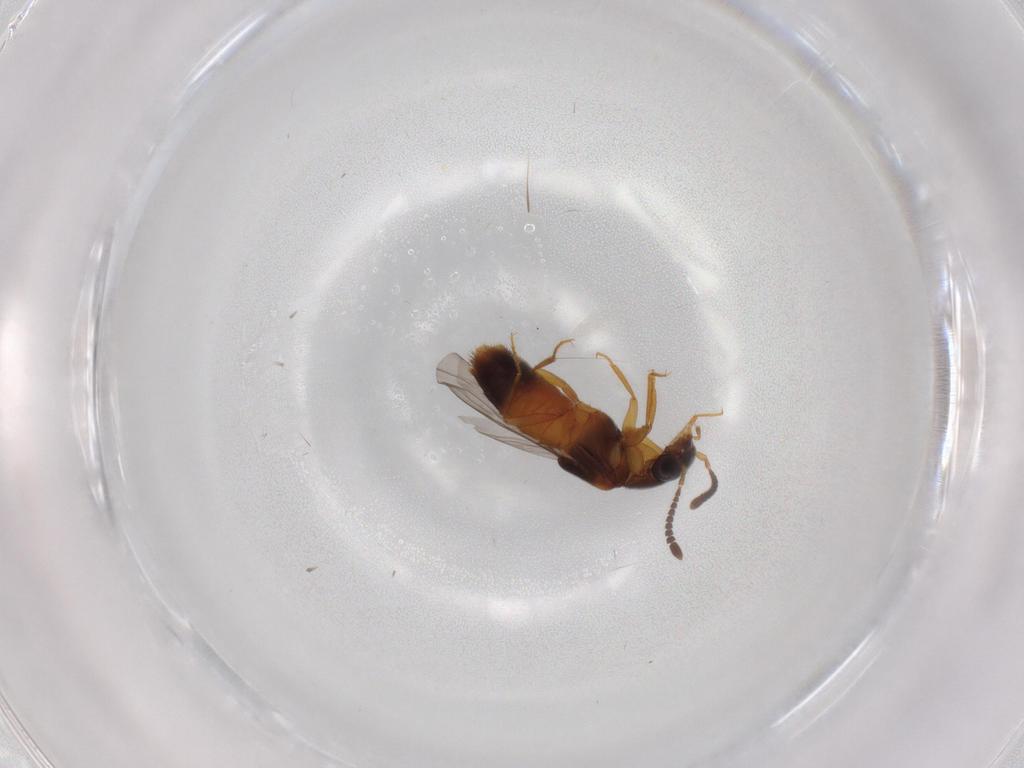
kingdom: Animalia
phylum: Arthropoda
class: Insecta
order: Coleoptera
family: Staphylinidae
